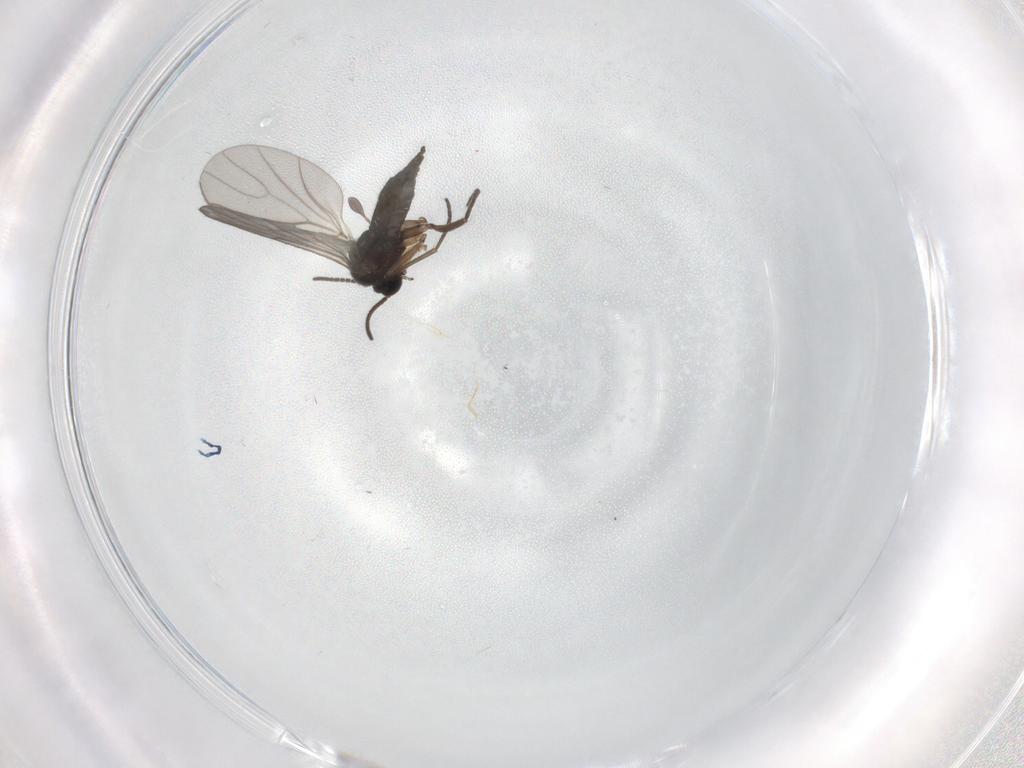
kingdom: Animalia
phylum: Arthropoda
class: Insecta
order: Diptera
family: Sciaridae
